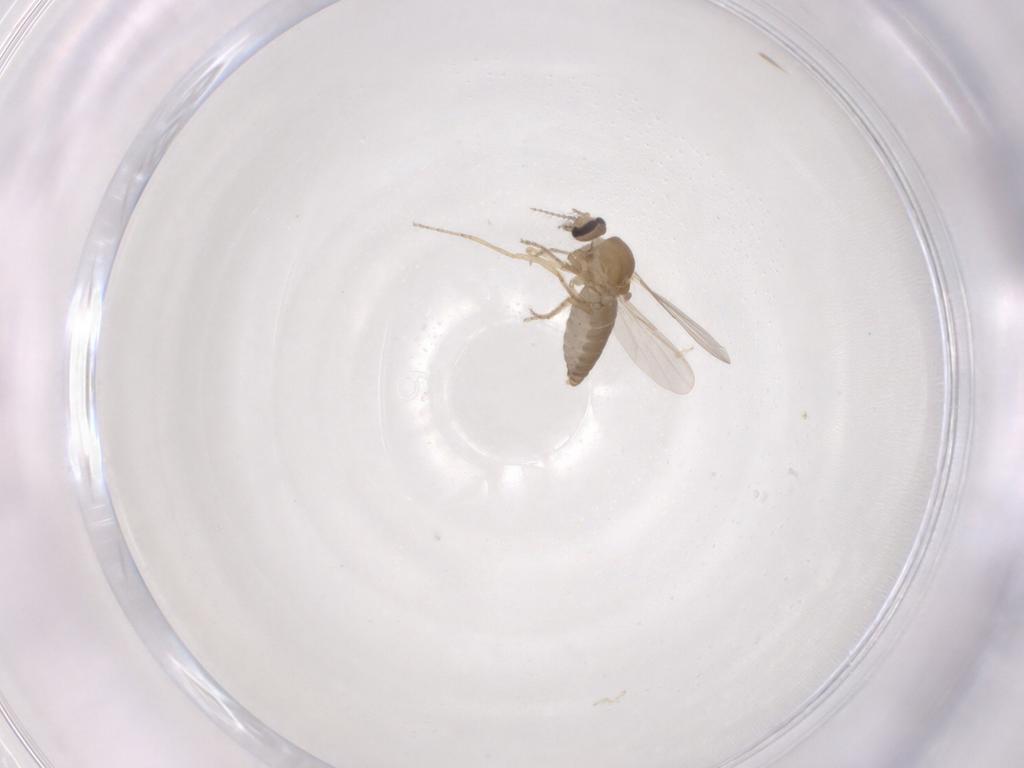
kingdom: Animalia
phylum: Arthropoda
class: Insecta
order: Diptera
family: Ceratopogonidae
